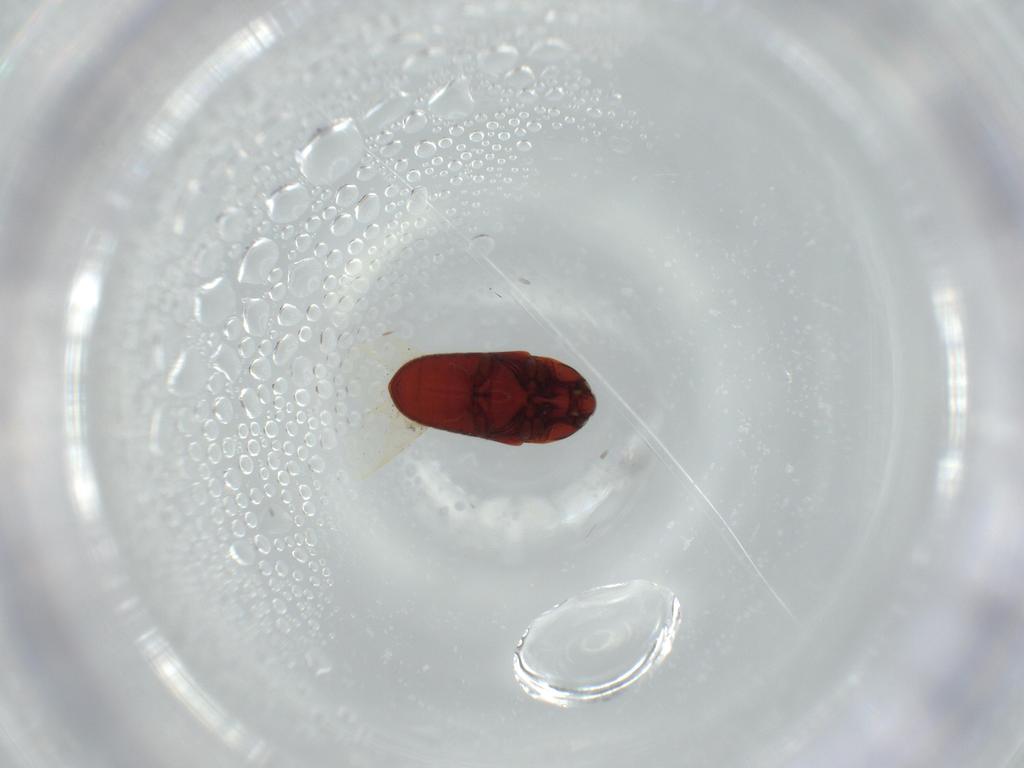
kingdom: Animalia
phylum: Arthropoda
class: Insecta
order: Coleoptera
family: Throscidae
